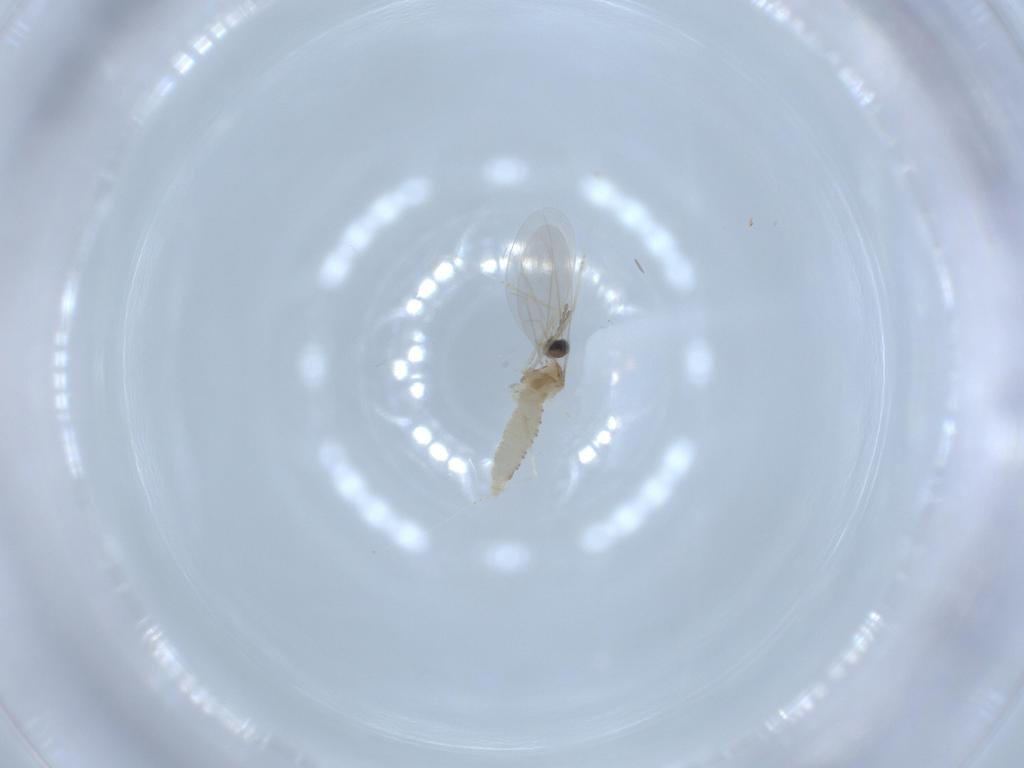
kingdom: Animalia
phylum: Arthropoda
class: Insecta
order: Diptera
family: Cecidomyiidae
